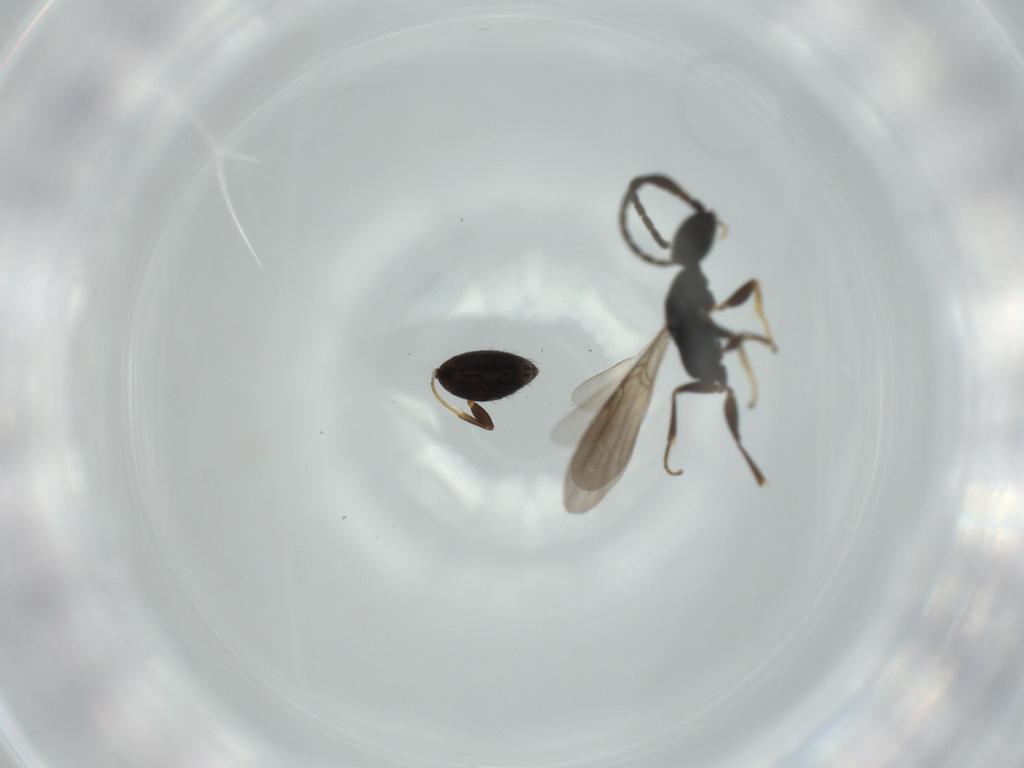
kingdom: Animalia
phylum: Arthropoda
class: Insecta
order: Hymenoptera
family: Bethylidae
